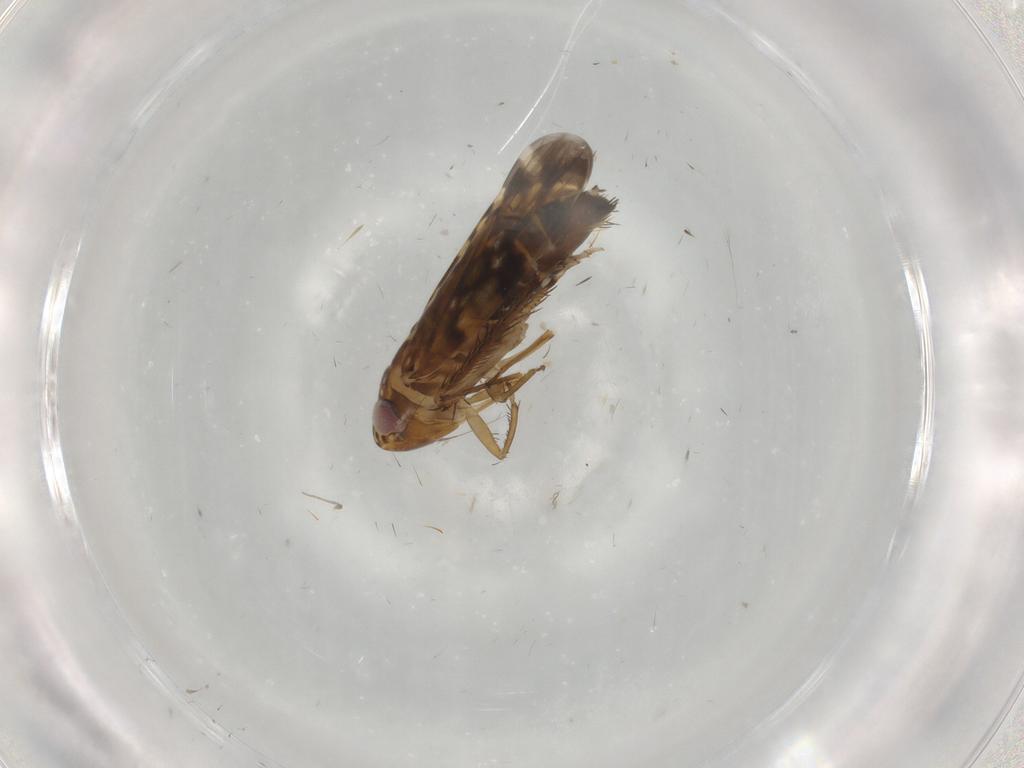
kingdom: Animalia
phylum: Arthropoda
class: Insecta
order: Hemiptera
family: Cicadellidae
